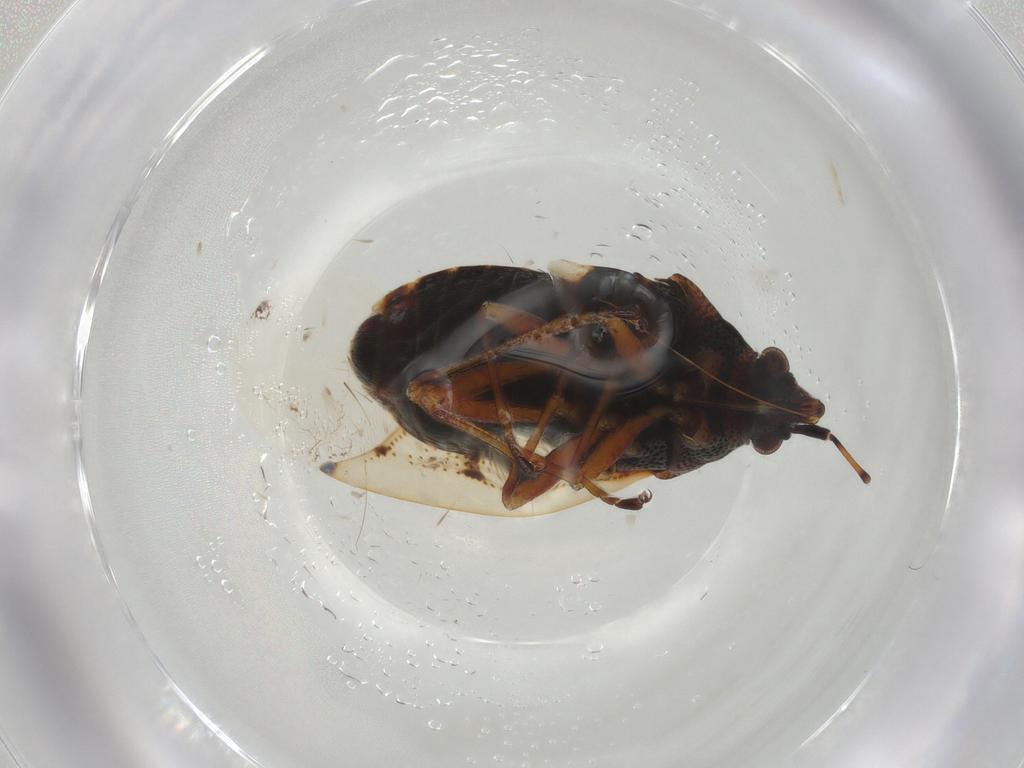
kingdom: Animalia
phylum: Arthropoda
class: Insecta
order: Hemiptera
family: Lygaeidae
